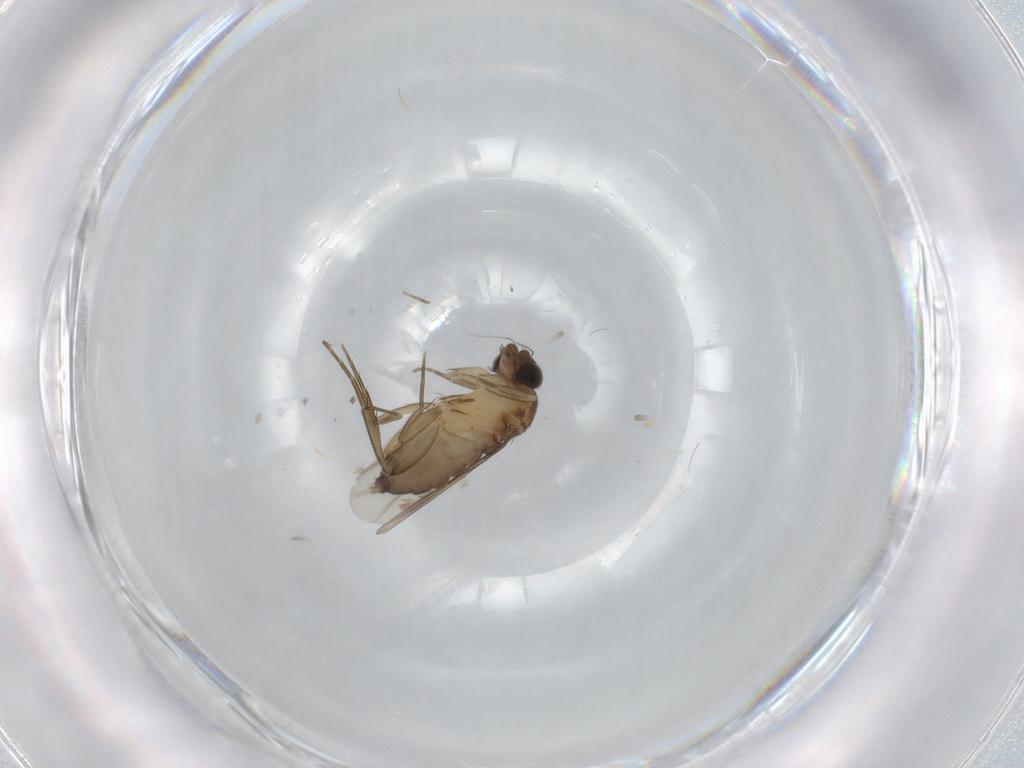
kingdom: Animalia
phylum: Arthropoda
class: Insecta
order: Diptera
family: Phoridae
